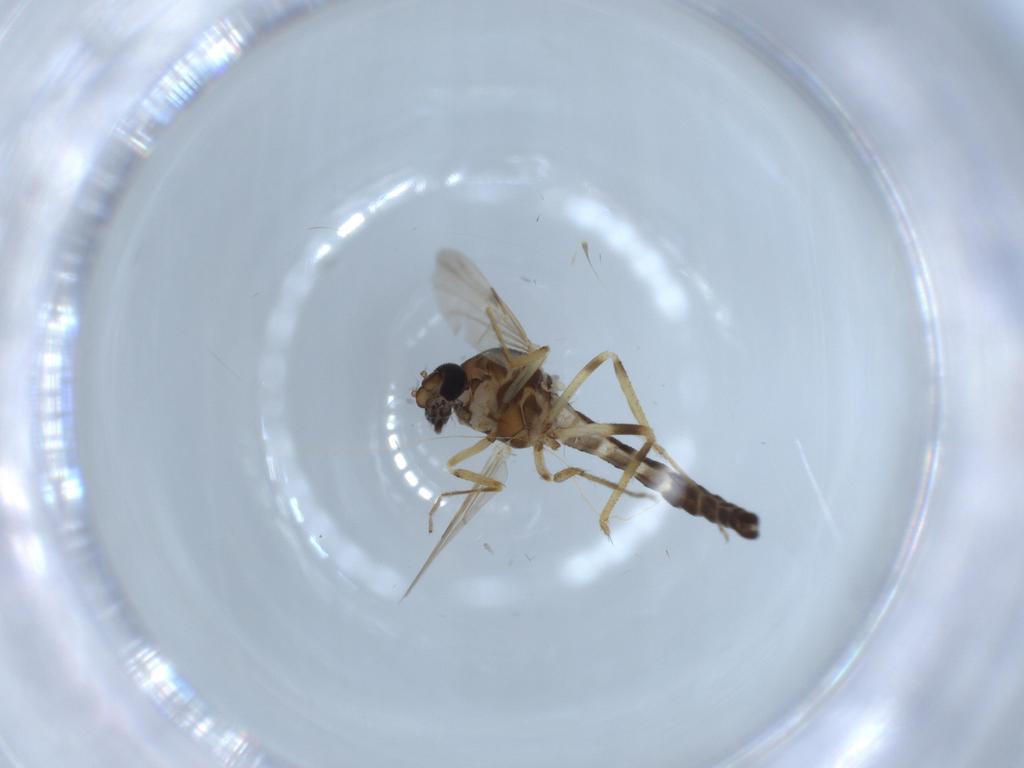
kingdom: Animalia
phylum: Arthropoda
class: Insecta
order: Diptera
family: Ceratopogonidae
